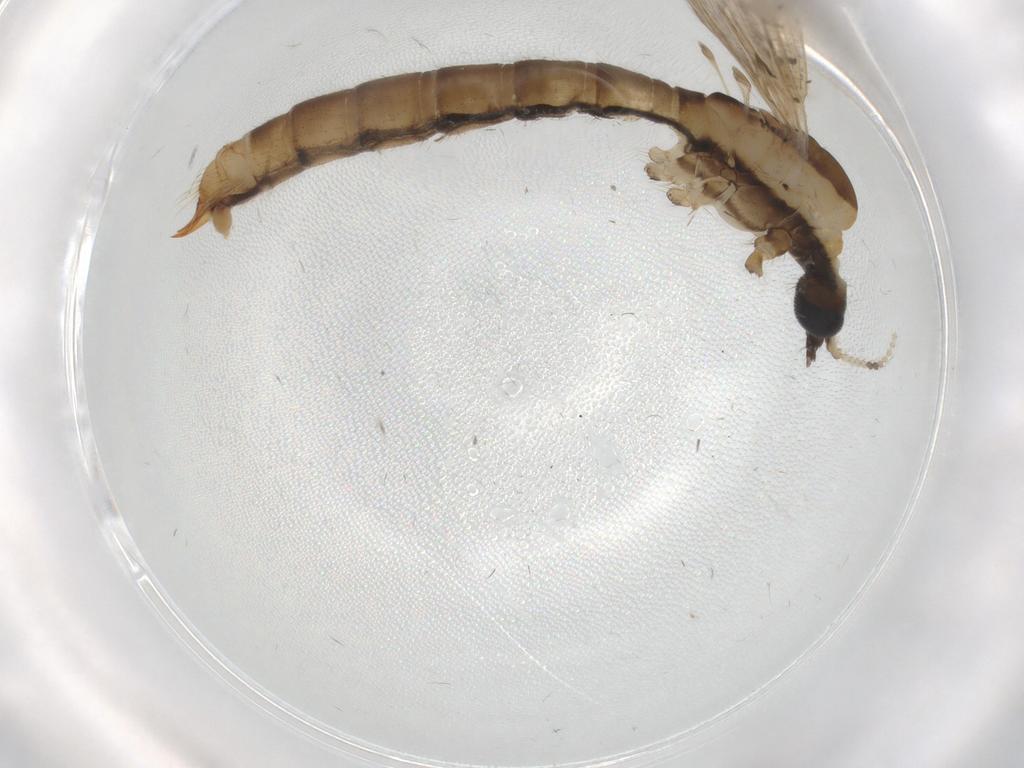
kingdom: Animalia
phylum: Arthropoda
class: Insecta
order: Diptera
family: Limoniidae
